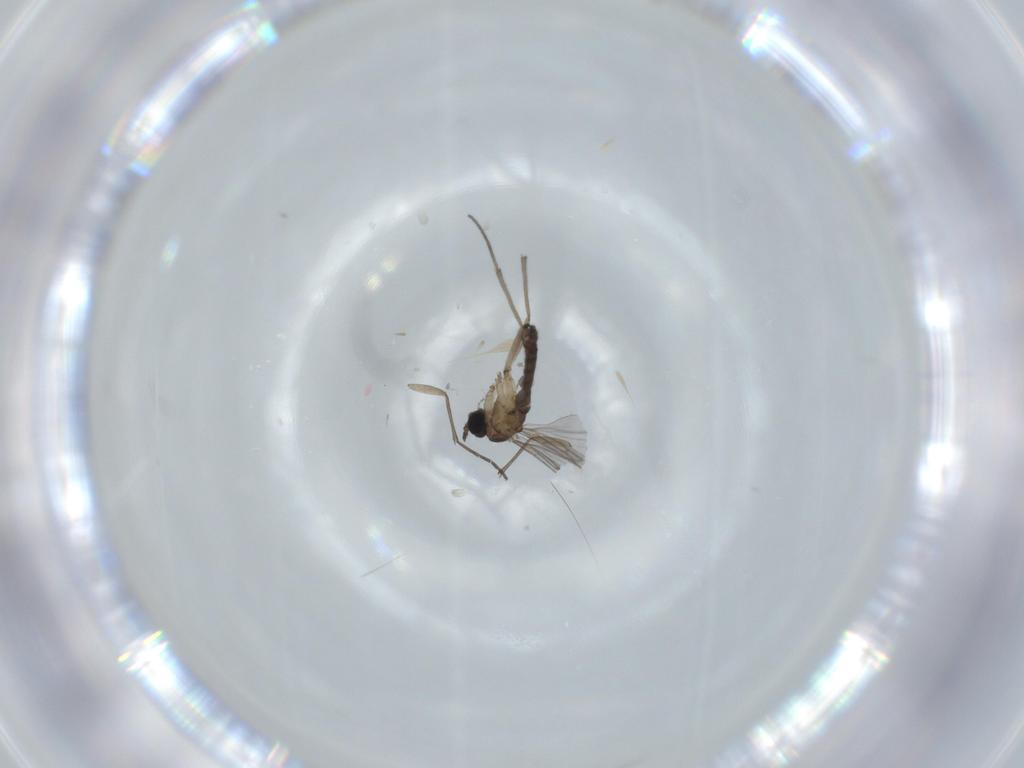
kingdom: Animalia
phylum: Arthropoda
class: Insecta
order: Diptera
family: Sciaridae
